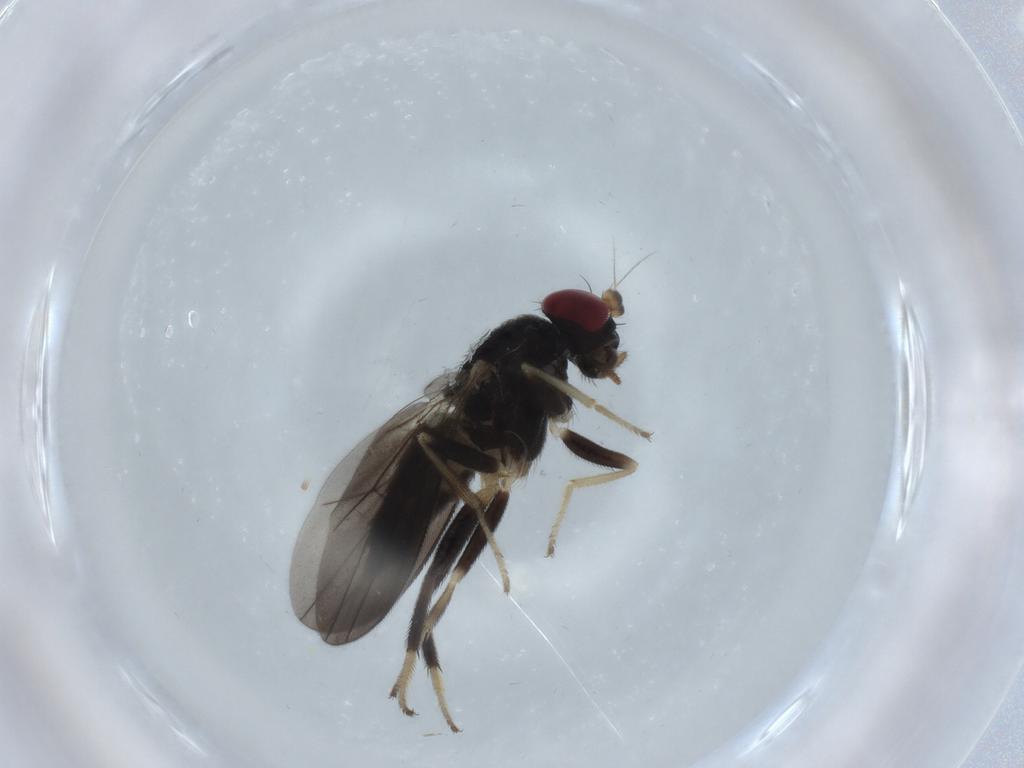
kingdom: Animalia
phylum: Arthropoda
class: Insecta
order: Diptera
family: Clusiidae
